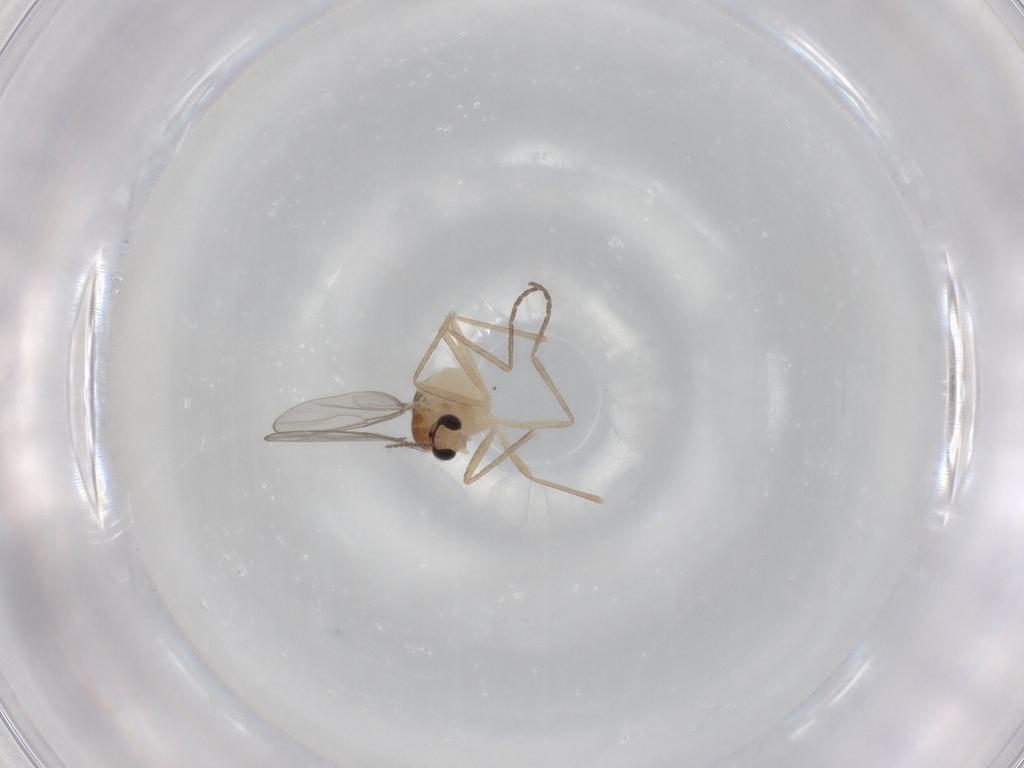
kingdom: Animalia
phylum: Arthropoda
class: Insecta
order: Diptera
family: Cecidomyiidae
